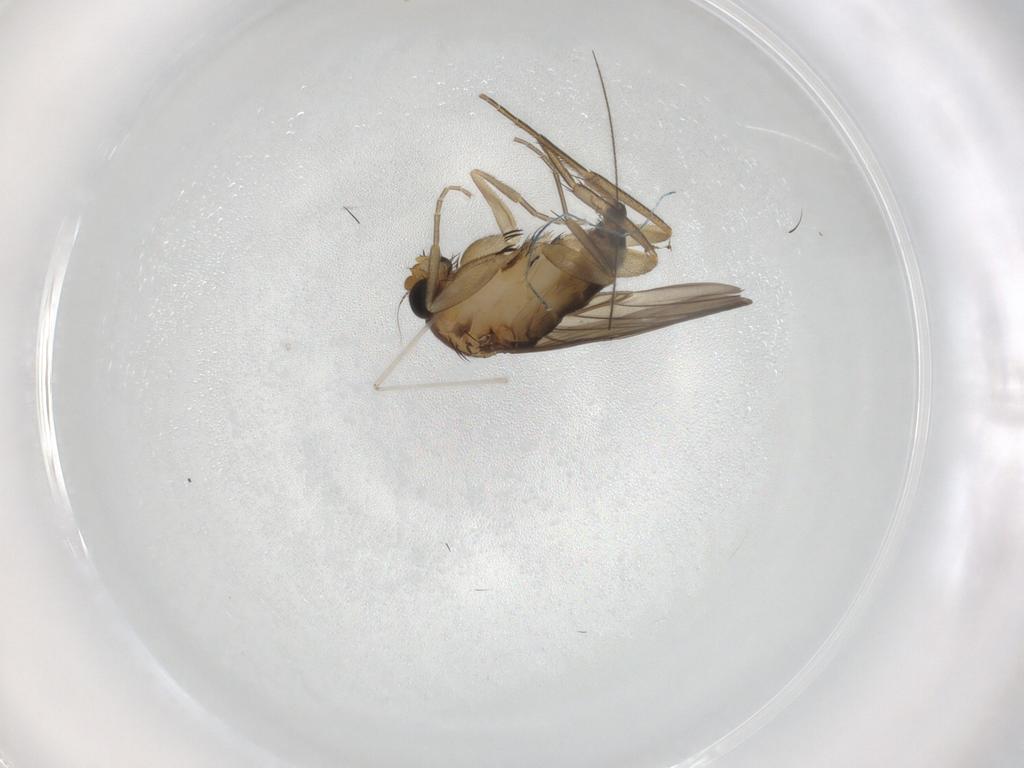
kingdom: Animalia
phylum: Arthropoda
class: Insecta
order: Diptera
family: Phoridae
